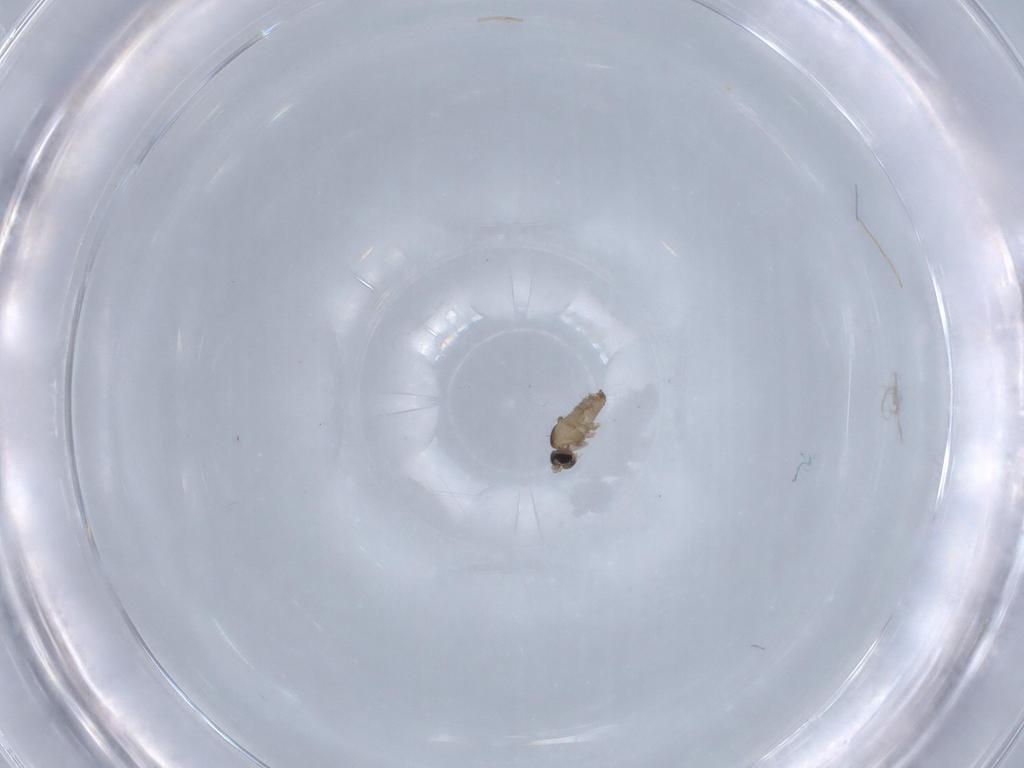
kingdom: Animalia
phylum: Arthropoda
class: Insecta
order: Diptera
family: Cecidomyiidae
